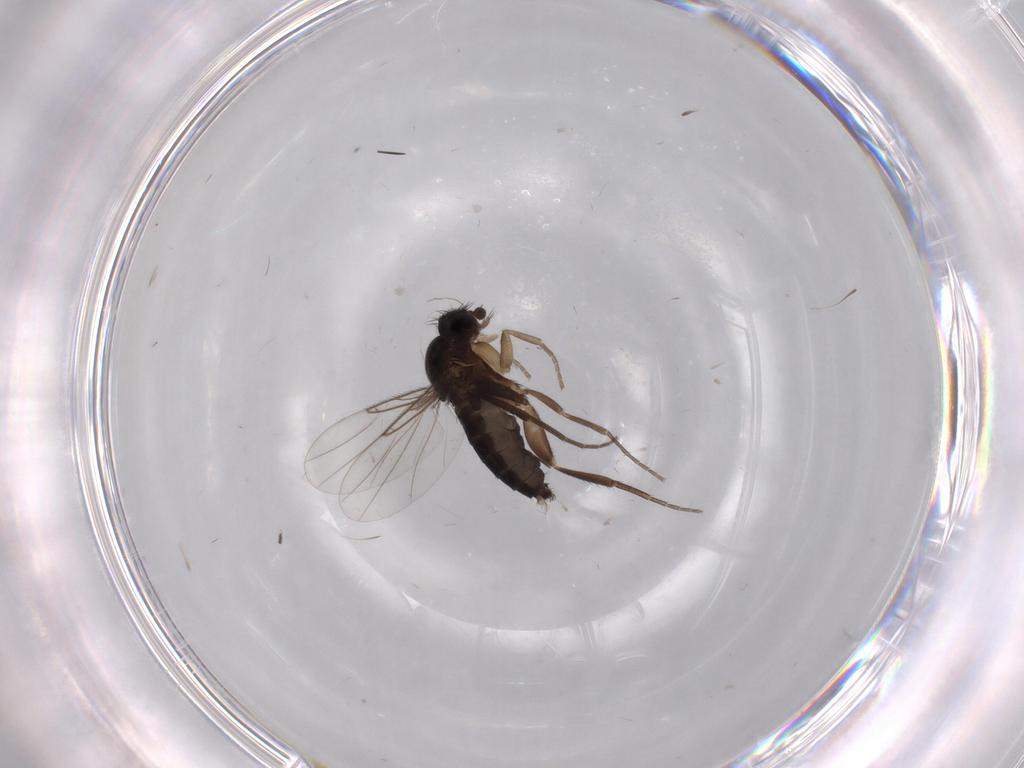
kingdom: Animalia
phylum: Arthropoda
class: Insecta
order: Diptera
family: Phoridae
